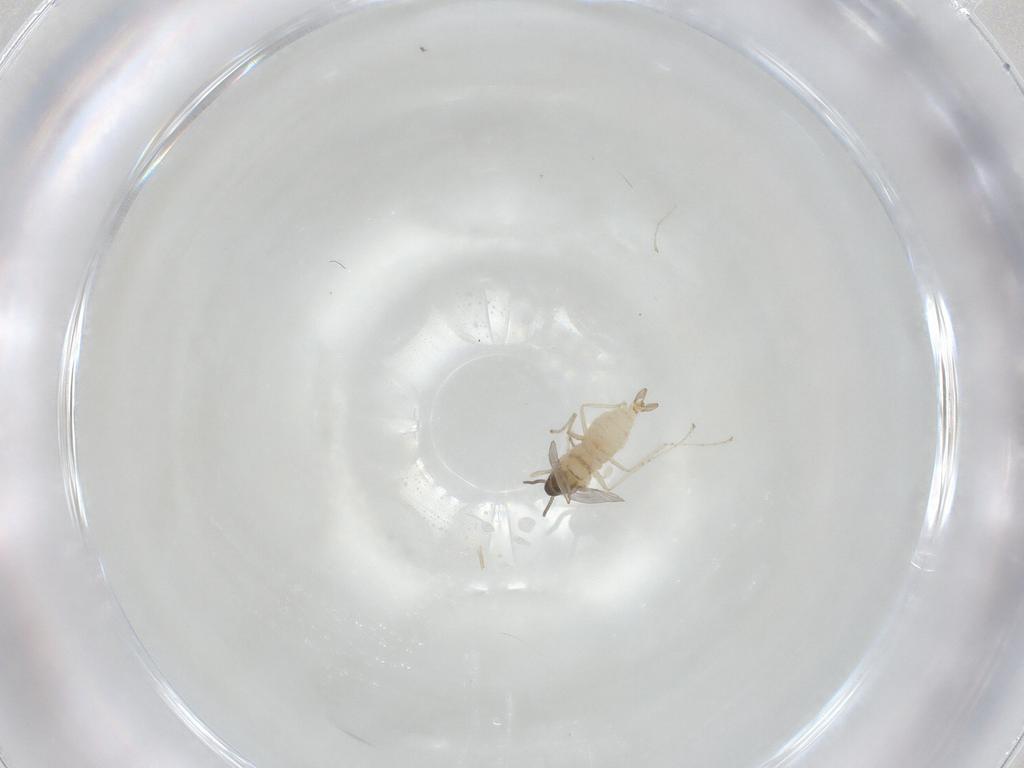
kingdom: Animalia
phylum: Arthropoda
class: Insecta
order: Diptera
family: Cecidomyiidae
